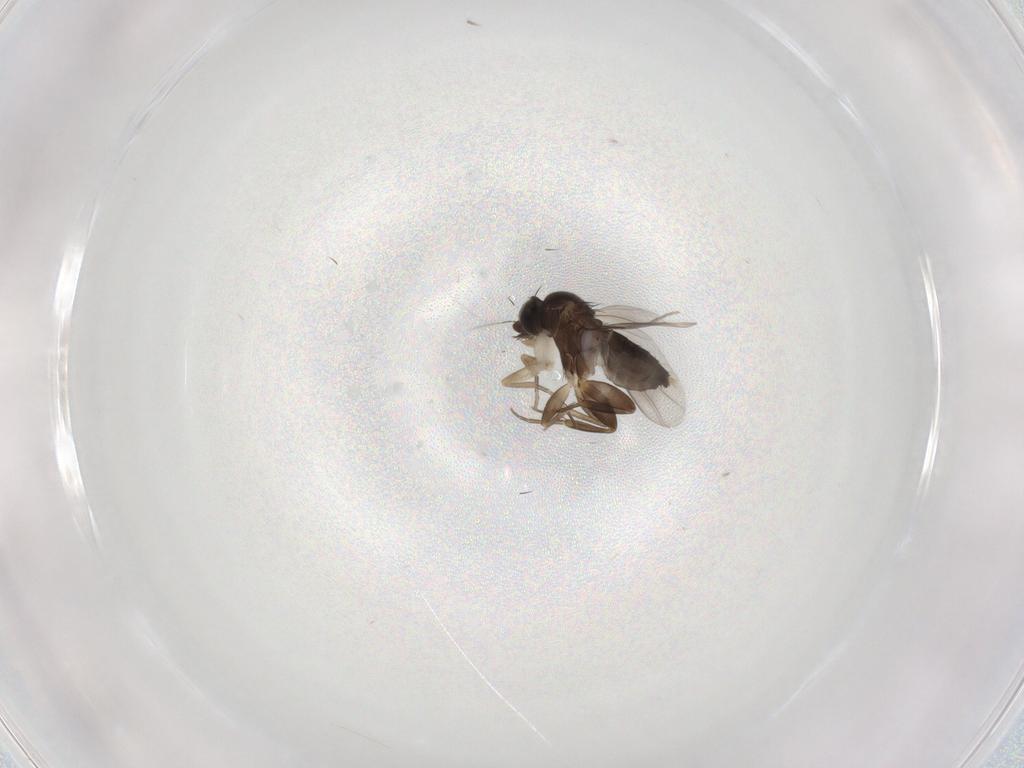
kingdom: Animalia
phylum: Arthropoda
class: Insecta
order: Diptera
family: Phoridae
